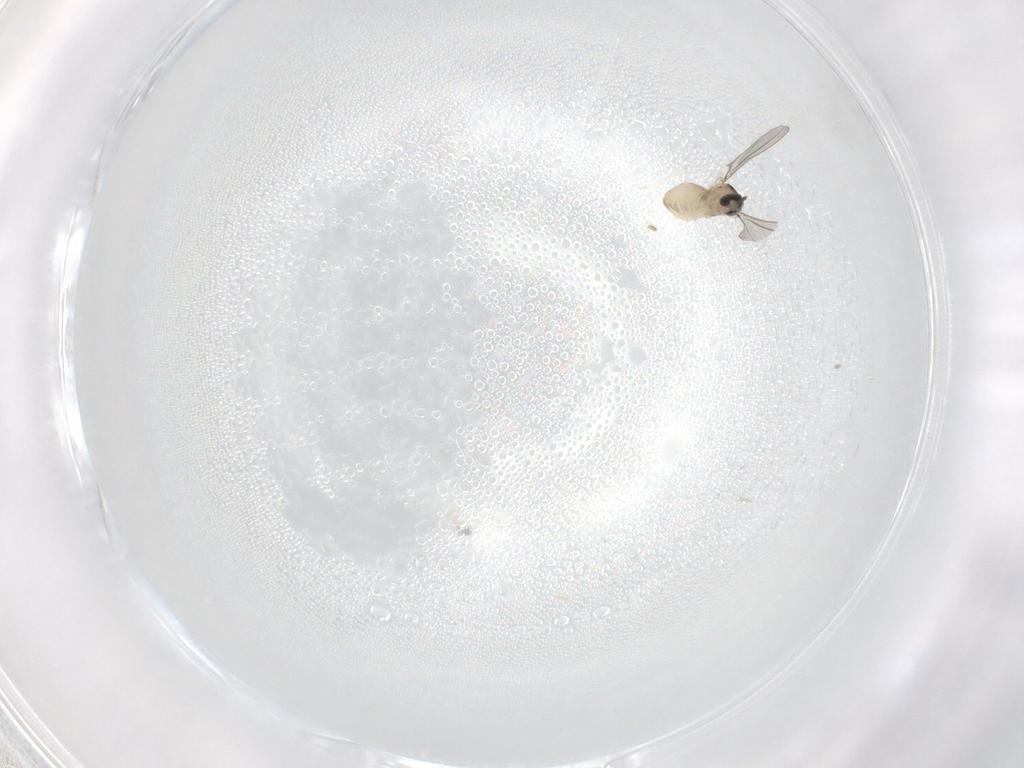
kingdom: Animalia
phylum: Arthropoda
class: Insecta
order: Diptera
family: Cecidomyiidae
